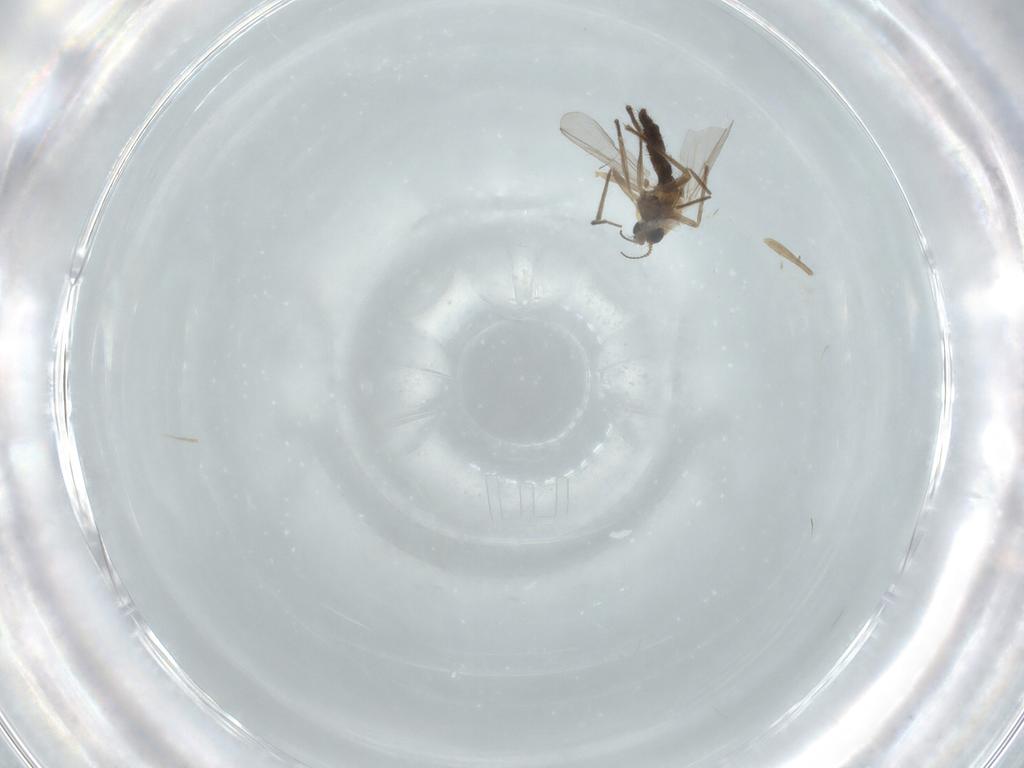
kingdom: Animalia
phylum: Arthropoda
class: Insecta
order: Diptera
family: Chironomidae
